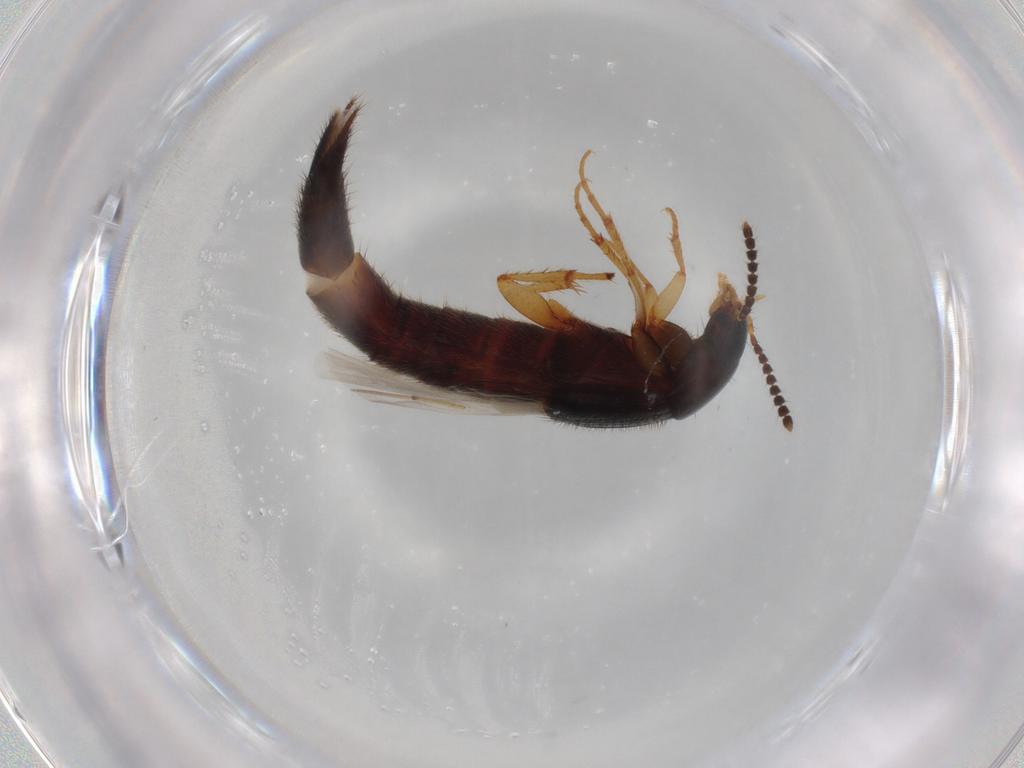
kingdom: Animalia
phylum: Arthropoda
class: Insecta
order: Coleoptera
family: Staphylinidae
